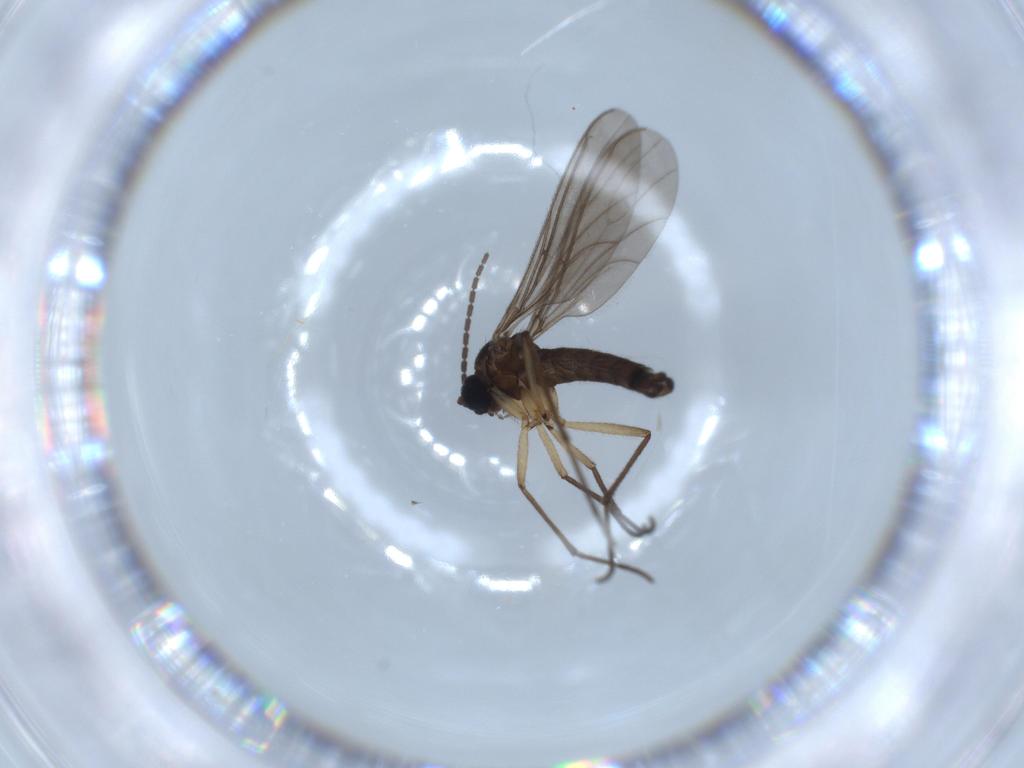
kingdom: Animalia
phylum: Arthropoda
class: Insecta
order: Diptera
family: Sciaridae
